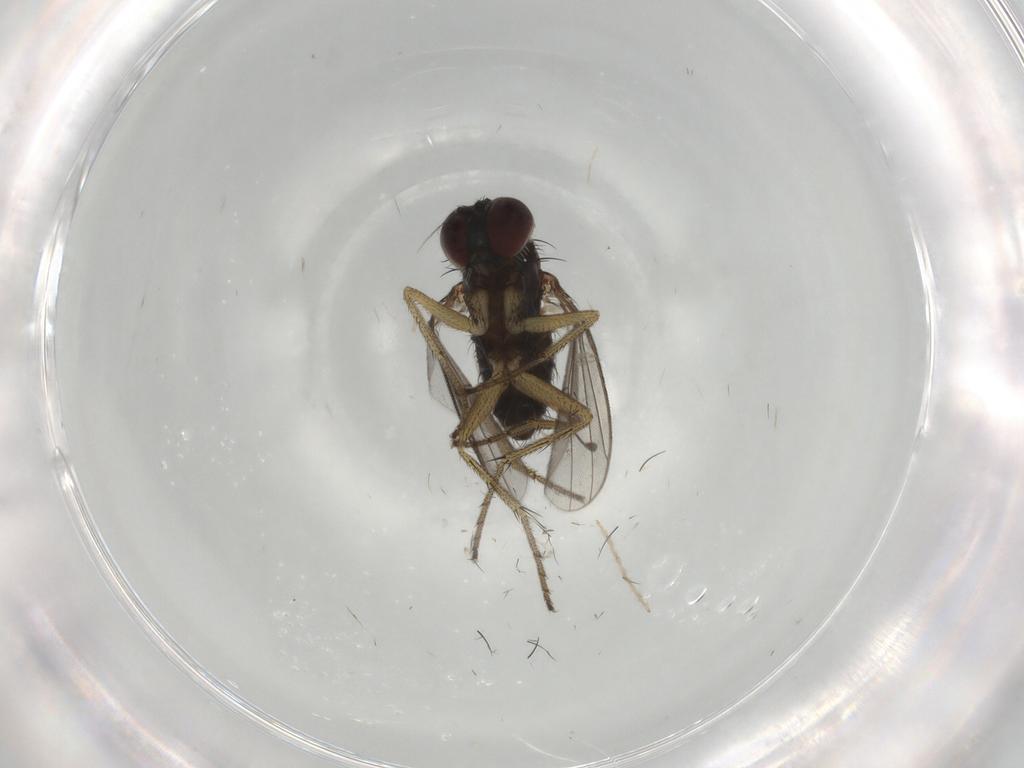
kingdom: Animalia
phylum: Arthropoda
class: Insecta
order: Diptera
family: Dolichopodidae
